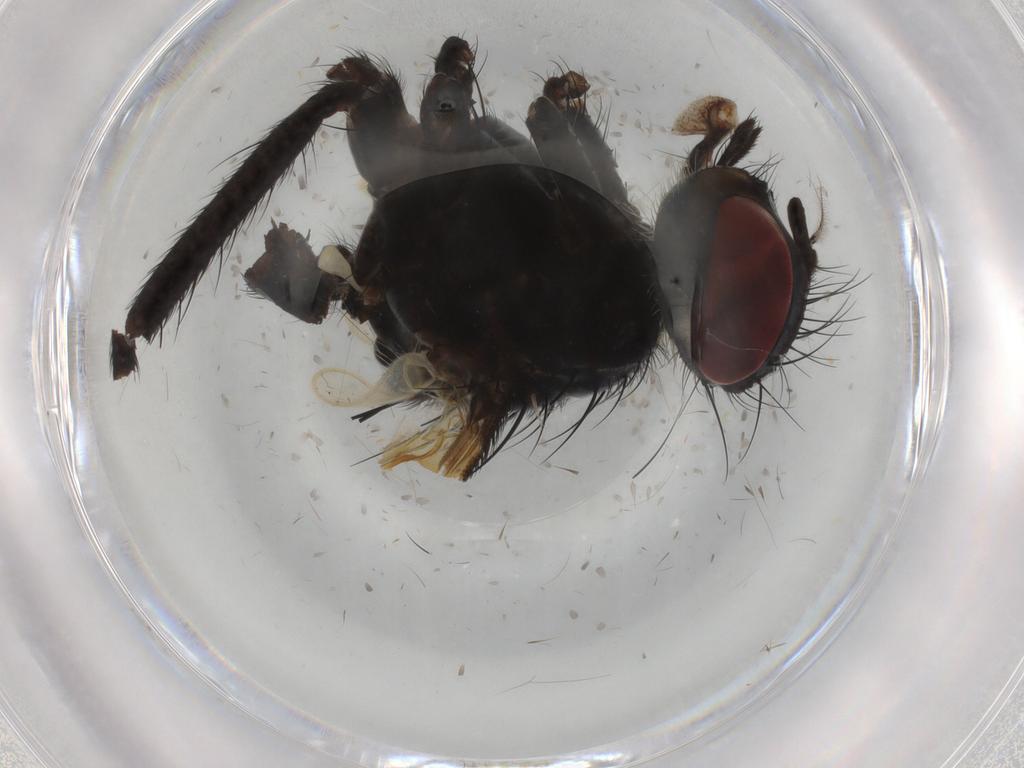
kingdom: Animalia
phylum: Arthropoda
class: Insecta
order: Diptera
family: Tachinidae
